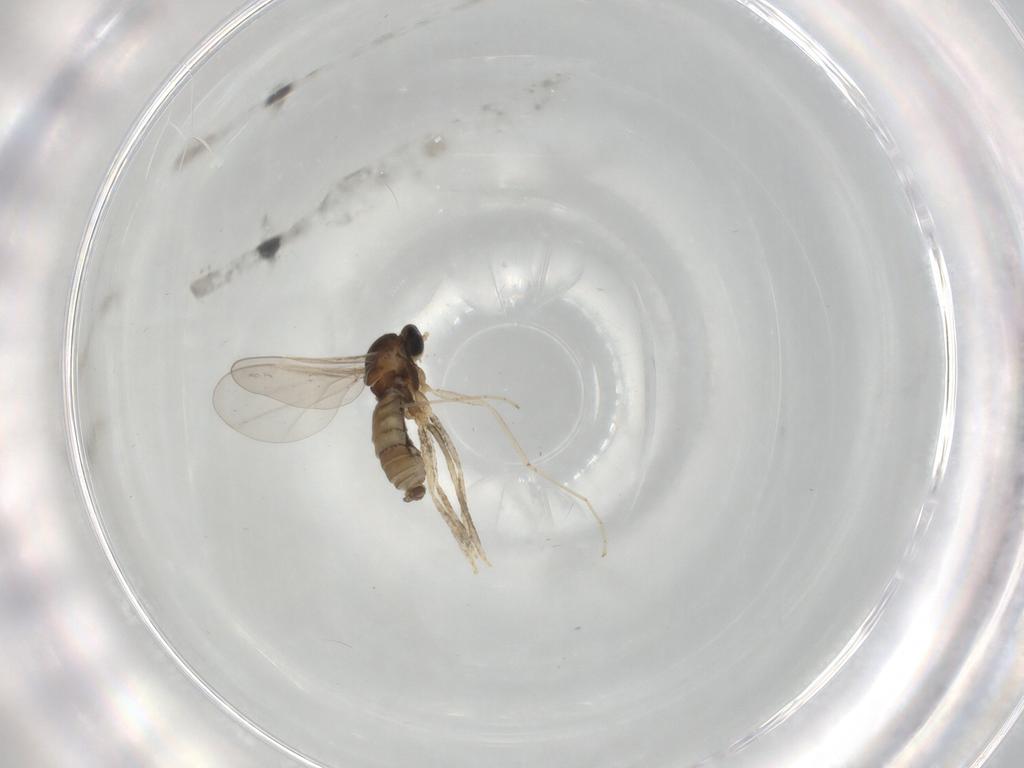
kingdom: Animalia
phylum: Arthropoda
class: Insecta
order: Diptera
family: Cecidomyiidae
